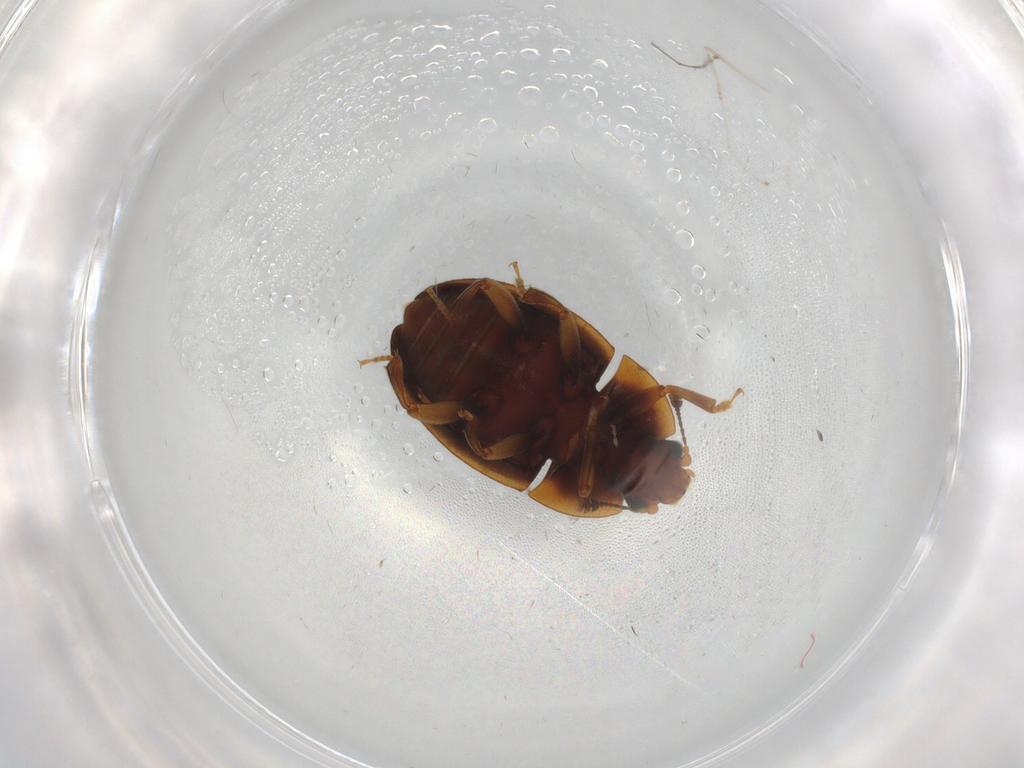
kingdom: Animalia
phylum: Arthropoda
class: Insecta
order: Coleoptera
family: Nitidulidae
